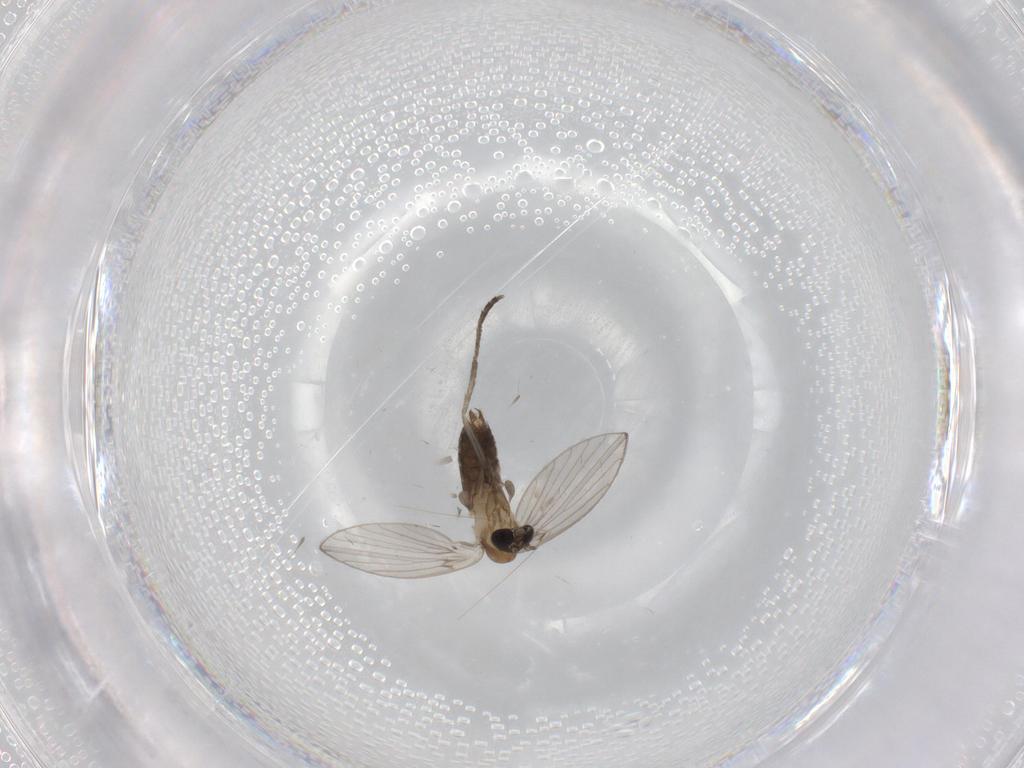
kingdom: Animalia
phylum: Arthropoda
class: Insecta
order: Diptera
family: Psychodidae
